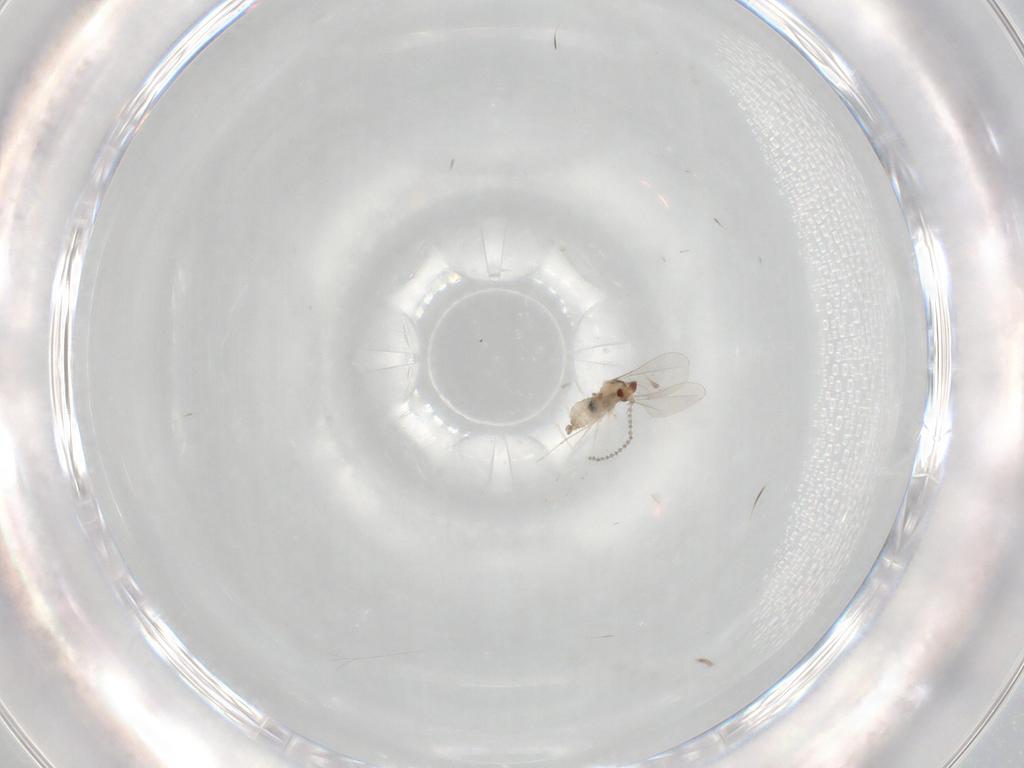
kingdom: Animalia
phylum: Arthropoda
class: Insecta
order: Diptera
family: Cecidomyiidae
